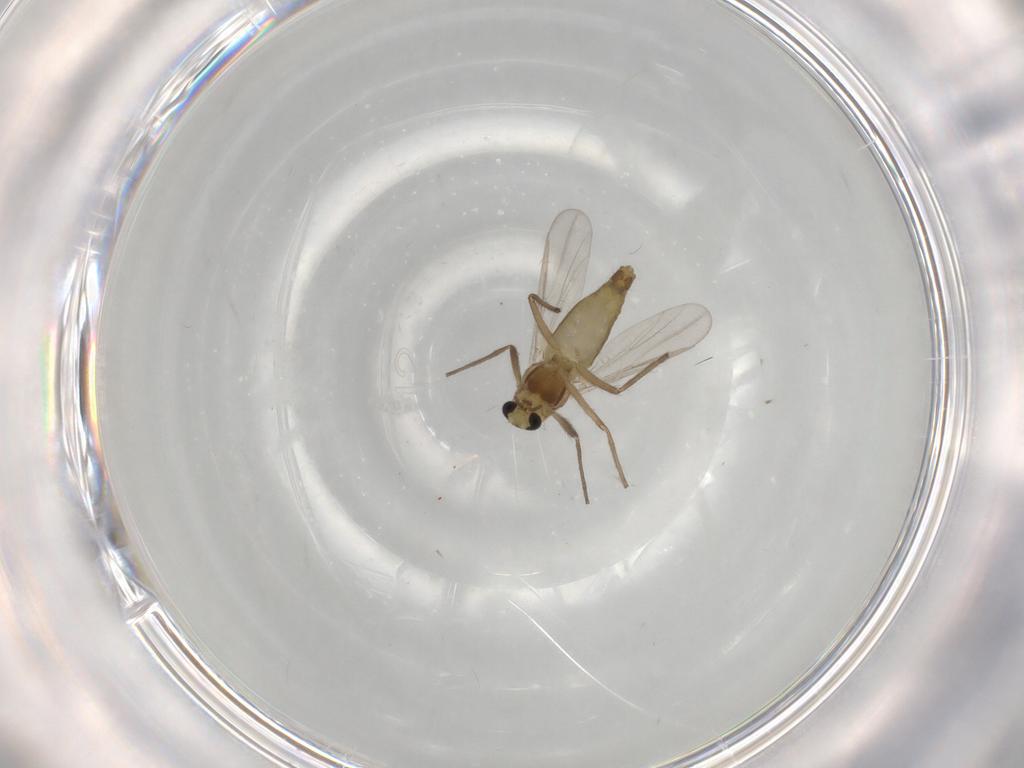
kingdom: Animalia
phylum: Arthropoda
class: Insecta
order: Diptera
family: Chironomidae
